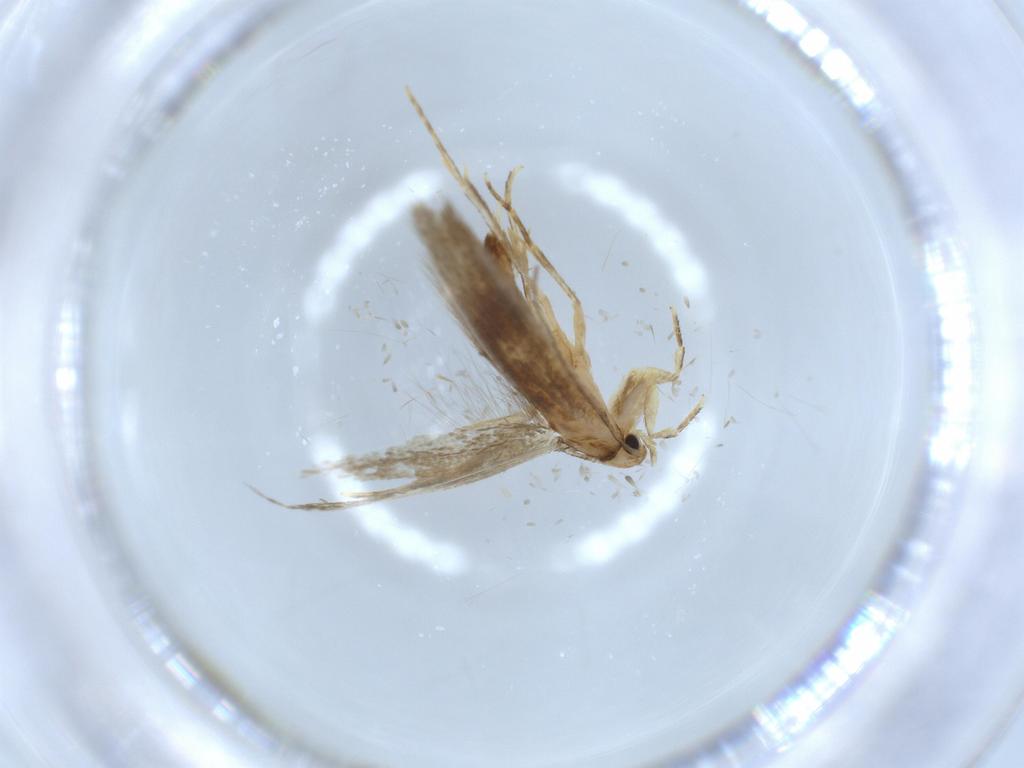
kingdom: Animalia
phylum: Arthropoda
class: Insecta
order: Lepidoptera
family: Tineidae
